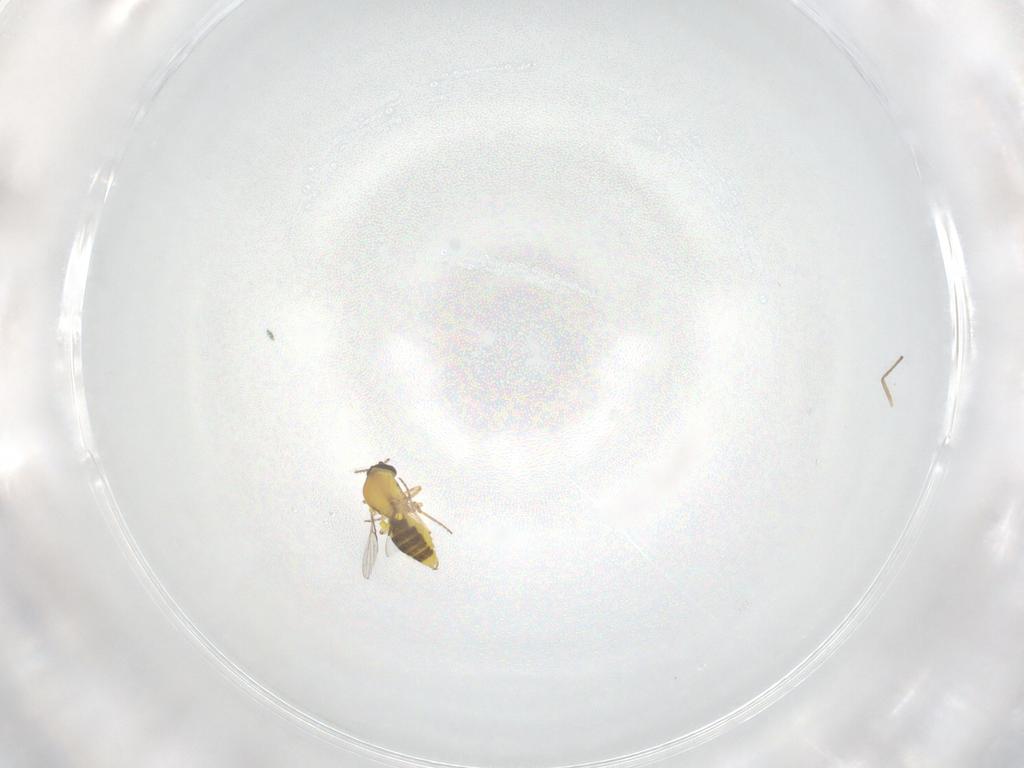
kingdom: Animalia
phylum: Arthropoda
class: Insecta
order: Diptera
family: Chironomidae
